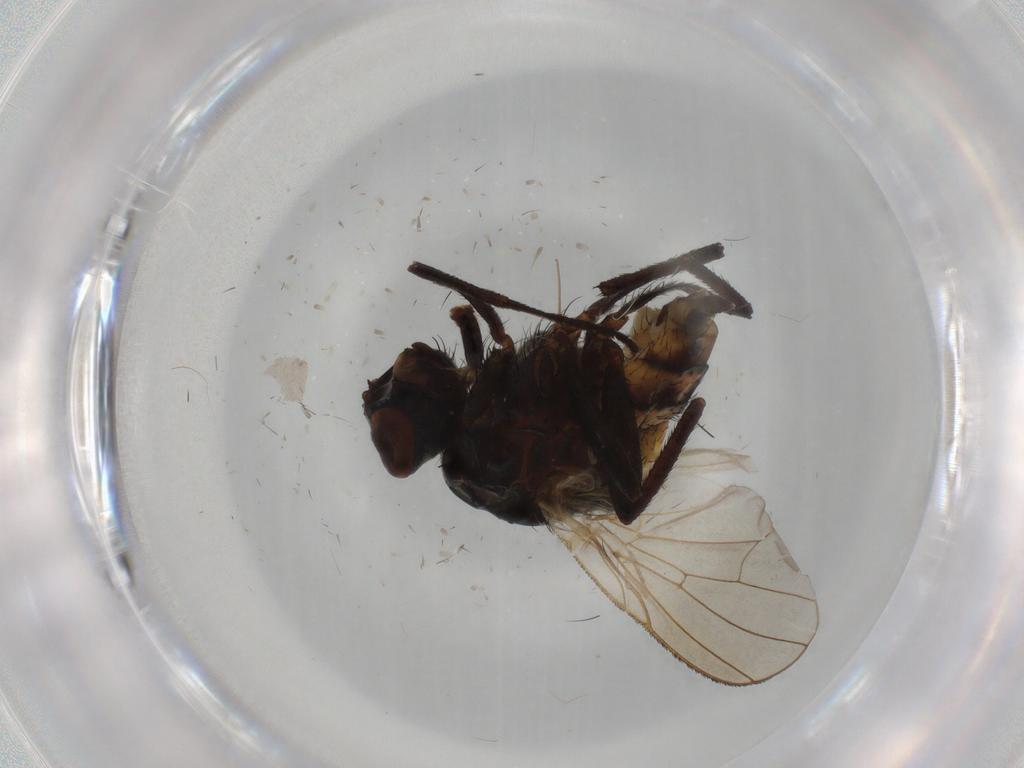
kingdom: Animalia
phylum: Arthropoda
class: Insecta
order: Diptera
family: Anthomyiidae
